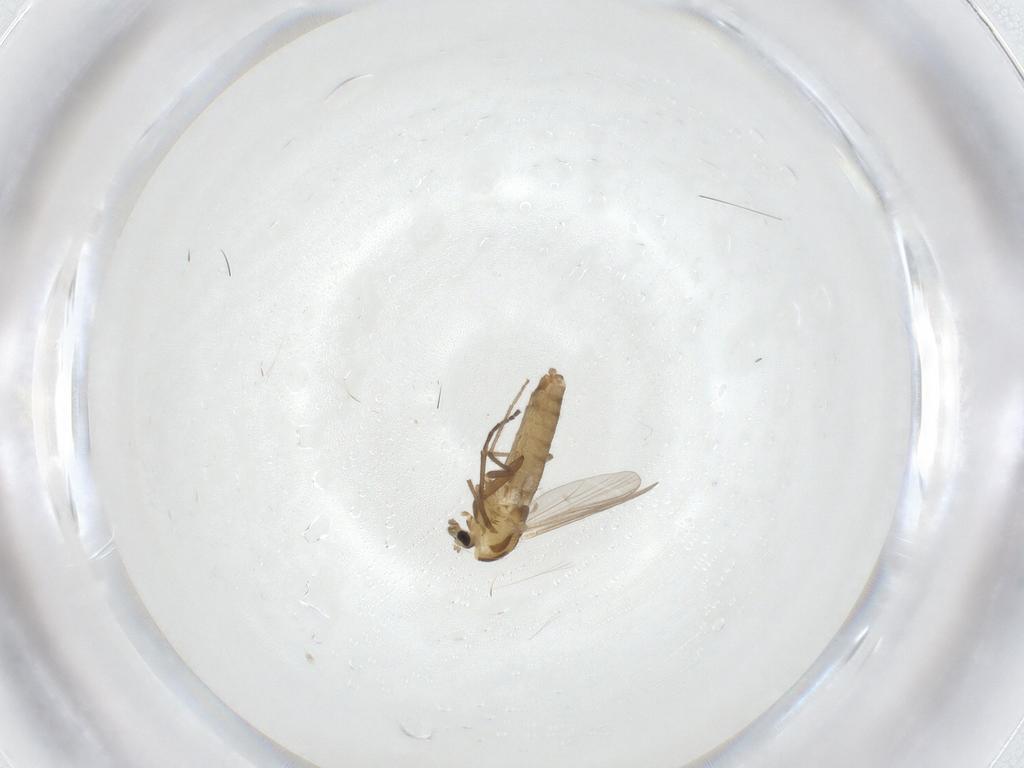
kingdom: Animalia
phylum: Arthropoda
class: Insecta
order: Diptera
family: Chironomidae
